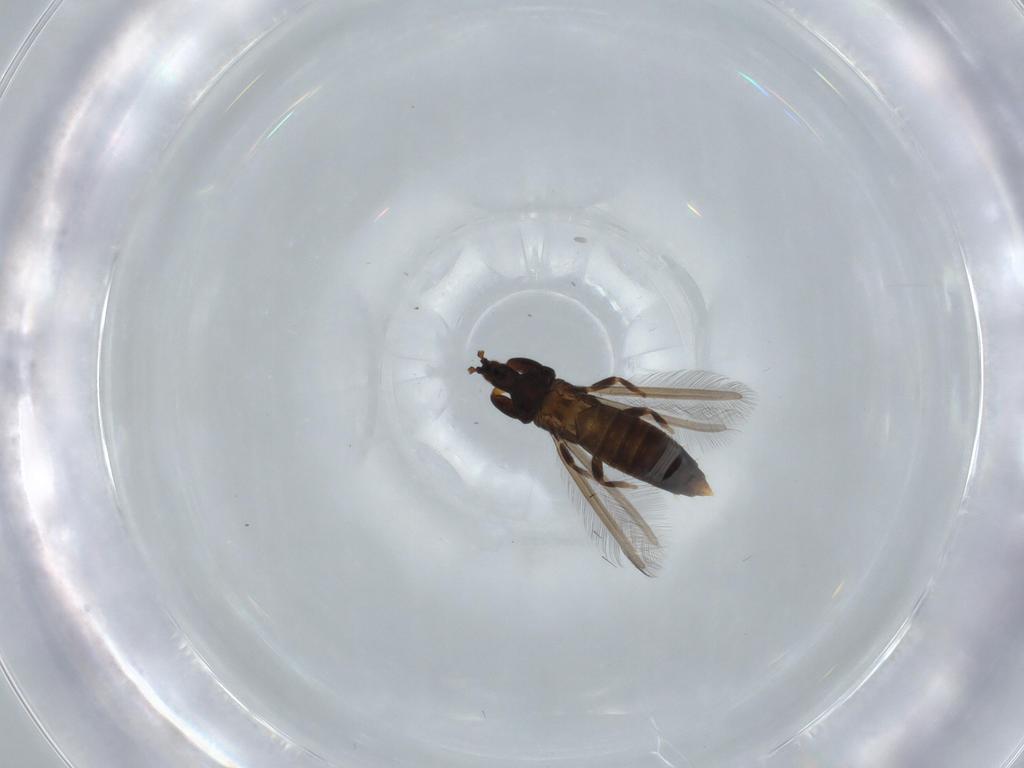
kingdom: Animalia
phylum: Arthropoda
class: Insecta
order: Thysanoptera
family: Phlaeothripidae
